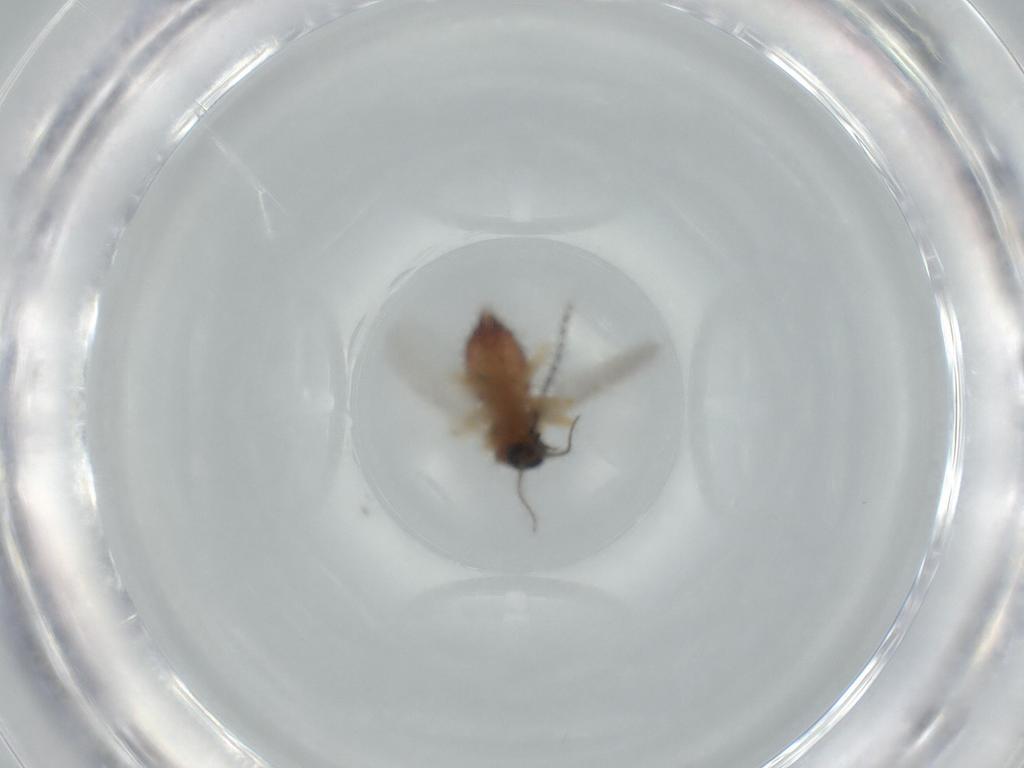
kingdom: Animalia
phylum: Arthropoda
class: Insecta
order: Diptera
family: Ceratopogonidae
